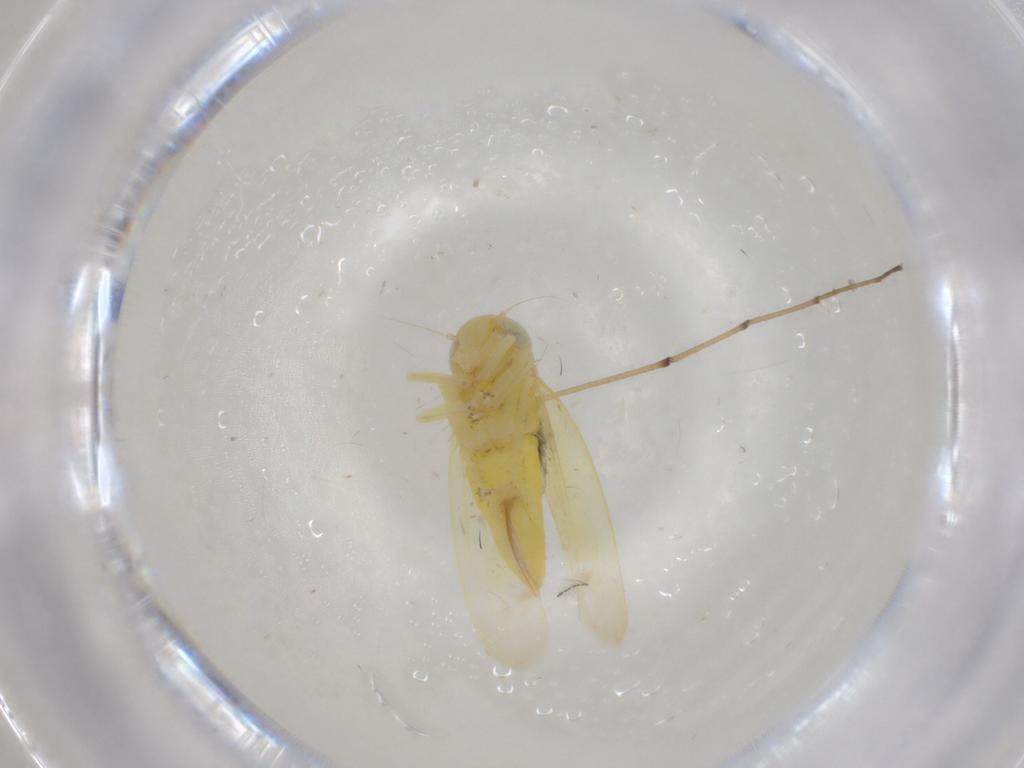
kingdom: Animalia
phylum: Arthropoda
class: Insecta
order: Hemiptera
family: Cicadellidae
